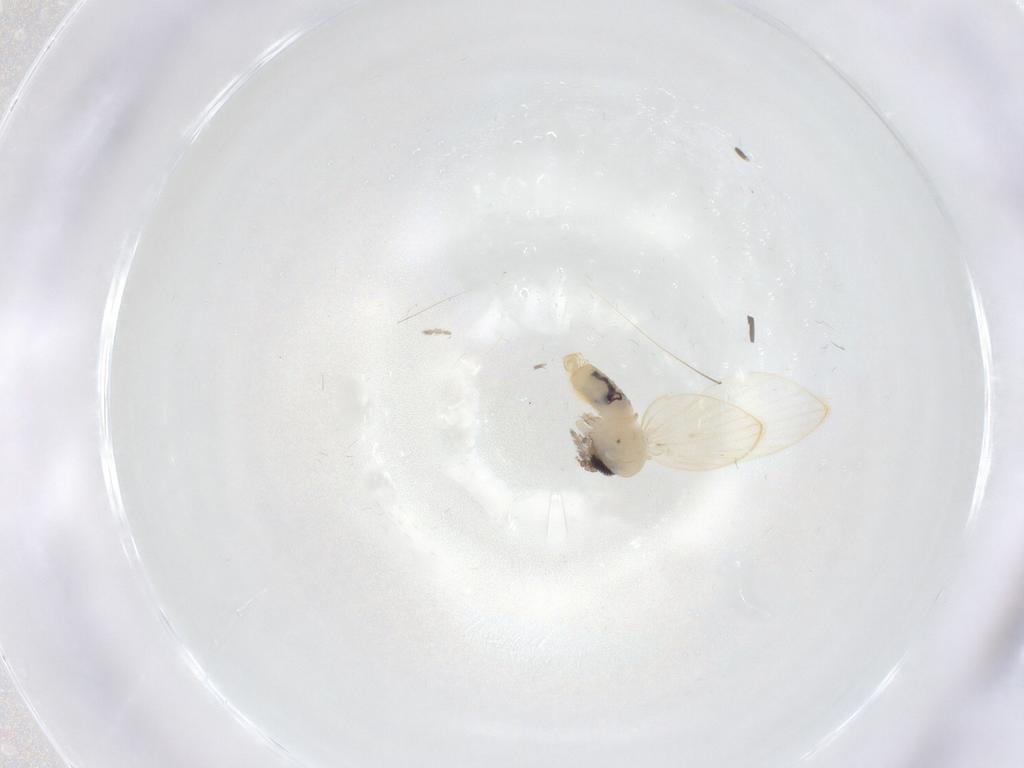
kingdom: Animalia
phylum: Arthropoda
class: Insecta
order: Diptera
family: Psychodidae
